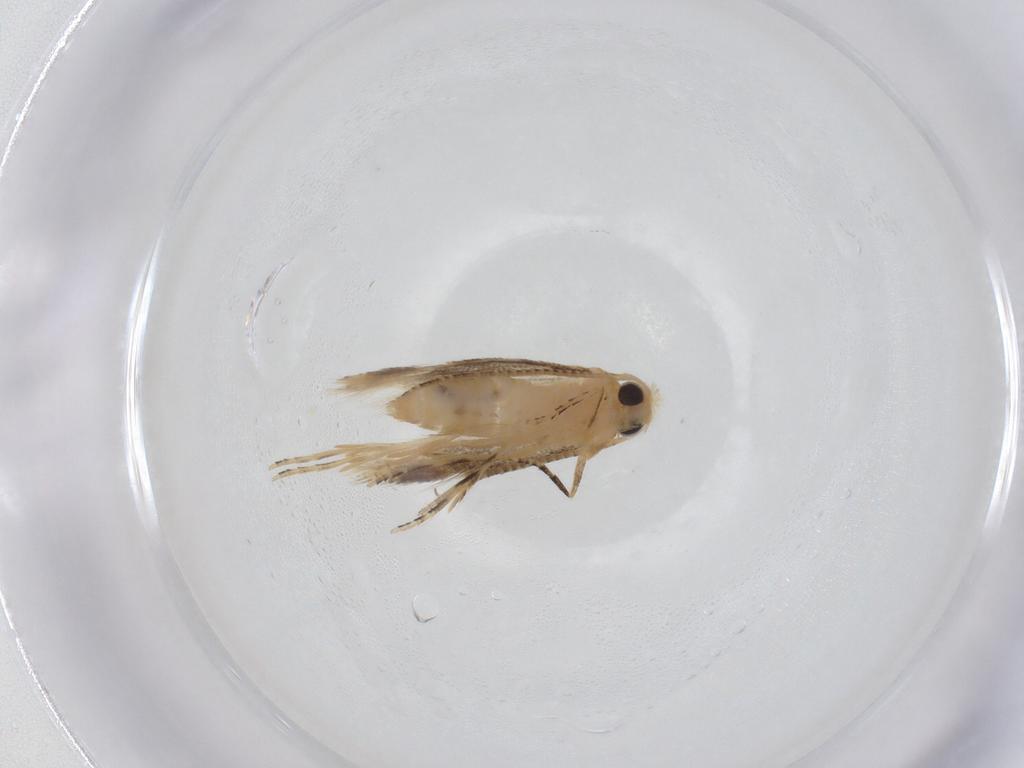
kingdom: Animalia
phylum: Arthropoda
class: Insecta
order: Lepidoptera
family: Bucculatricidae
